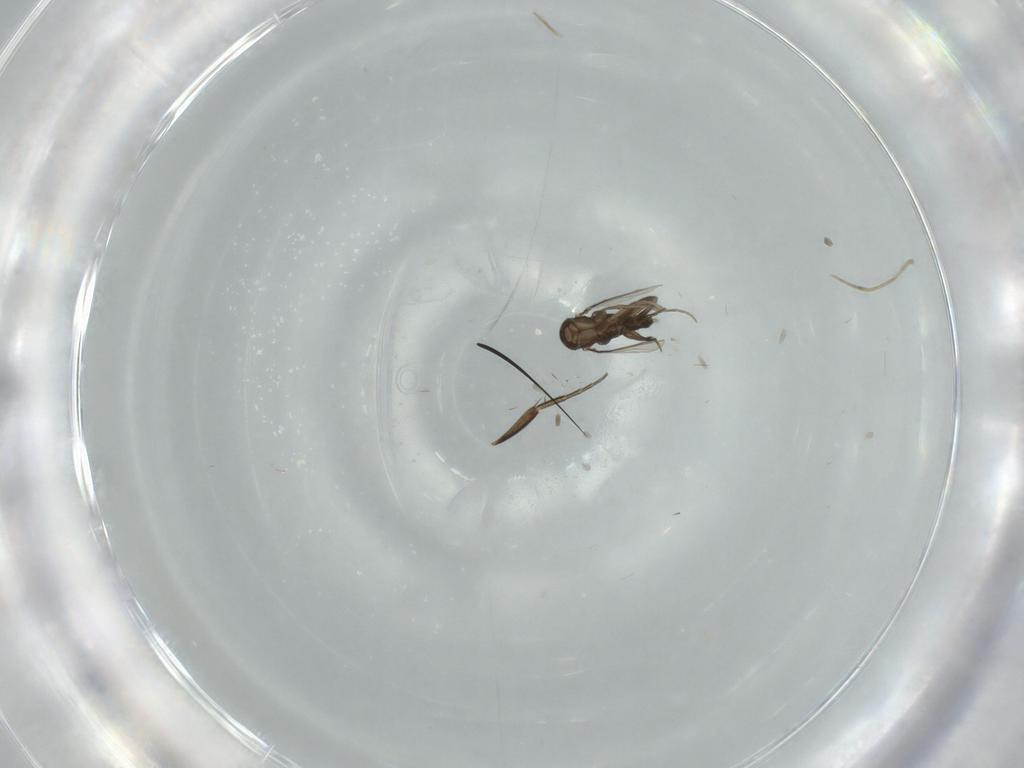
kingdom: Animalia
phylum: Arthropoda
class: Insecta
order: Diptera
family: Phoridae
